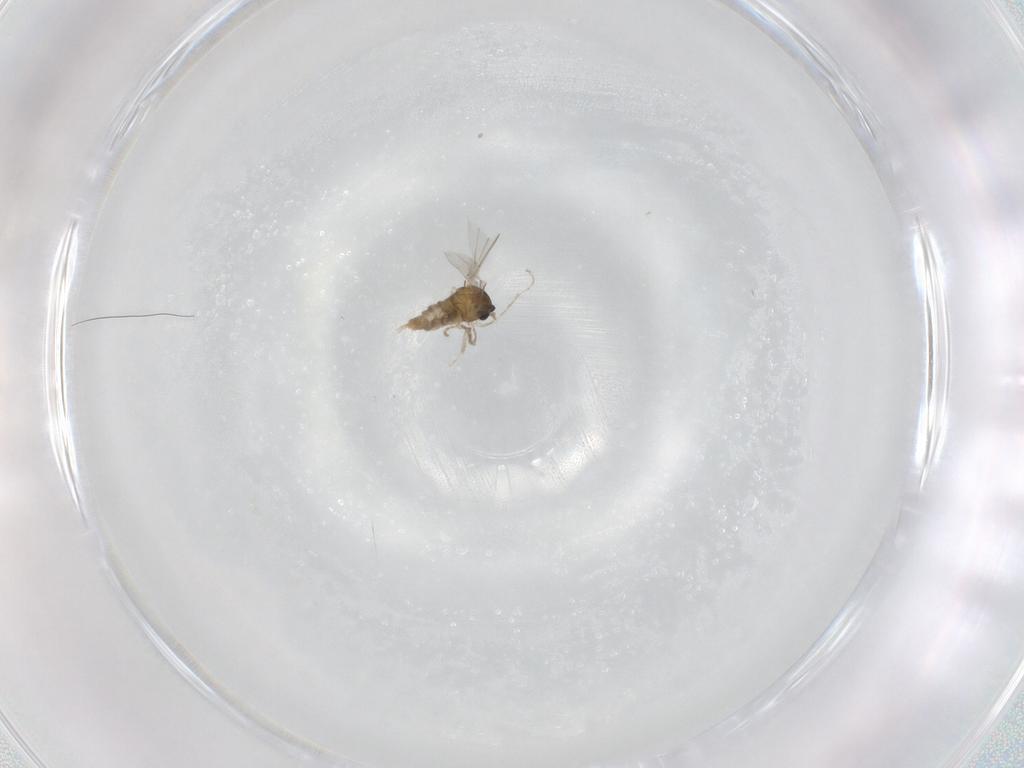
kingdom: Animalia
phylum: Arthropoda
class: Insecta
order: Diptera
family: Cecidomyiidae
